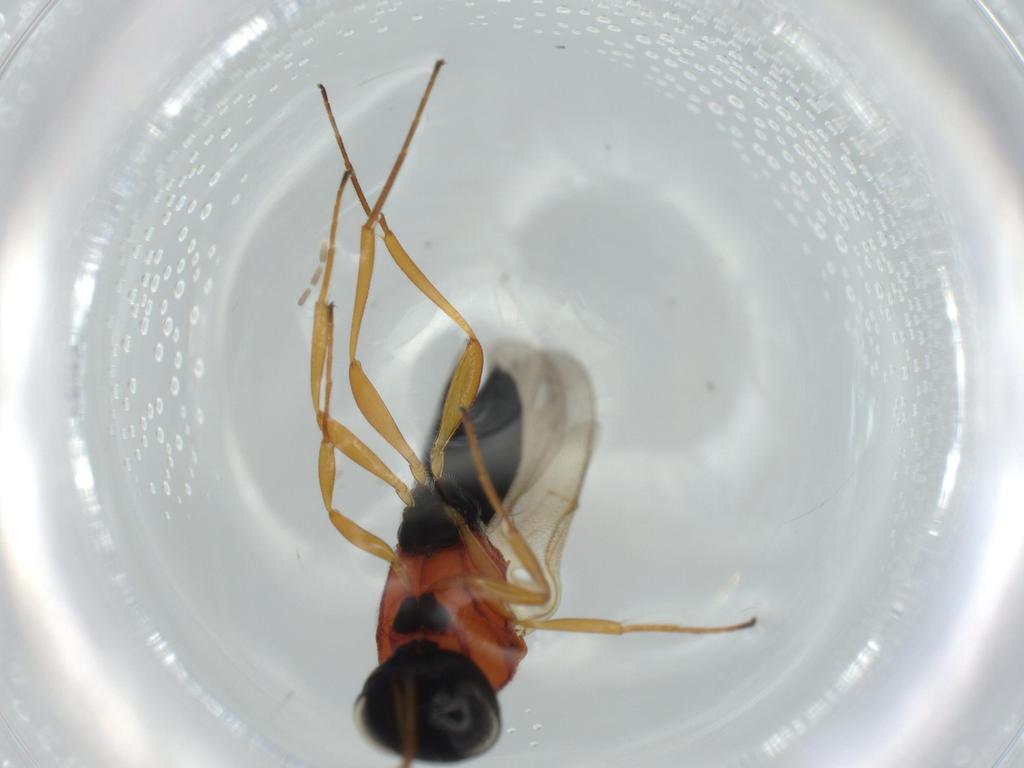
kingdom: Animalia
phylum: Arthropoda
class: Insecta
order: Hymenoptera
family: Scelionidae
